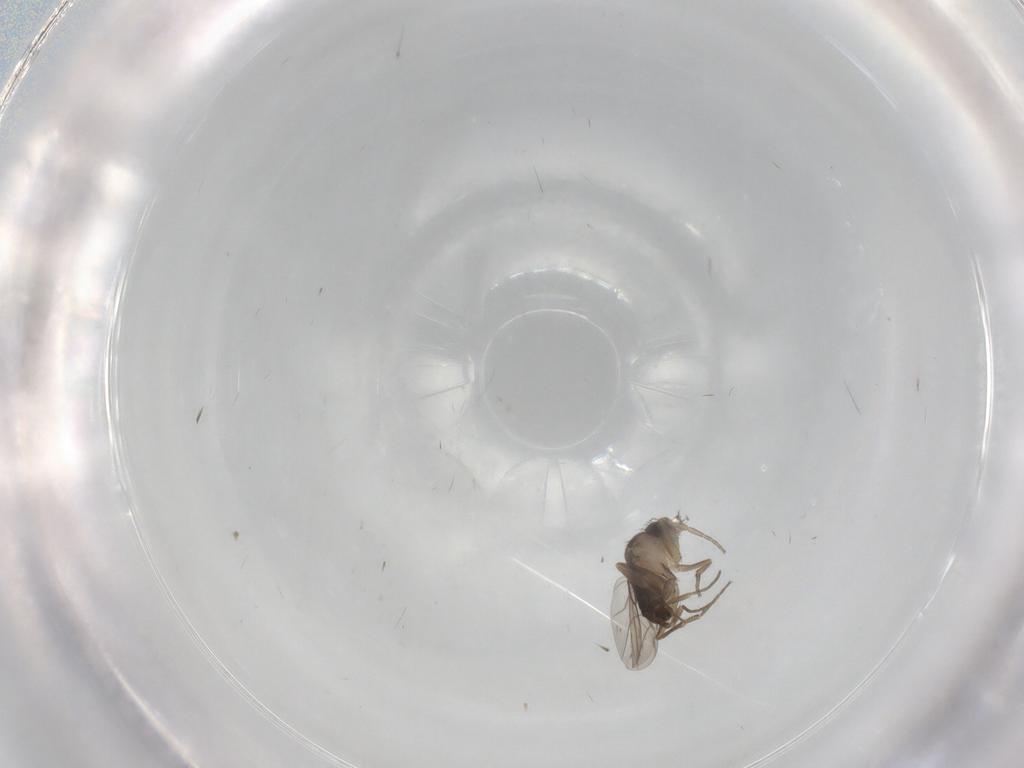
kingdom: Animalia
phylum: Arthropoda
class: Insecta
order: Diptera
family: Phoridae
